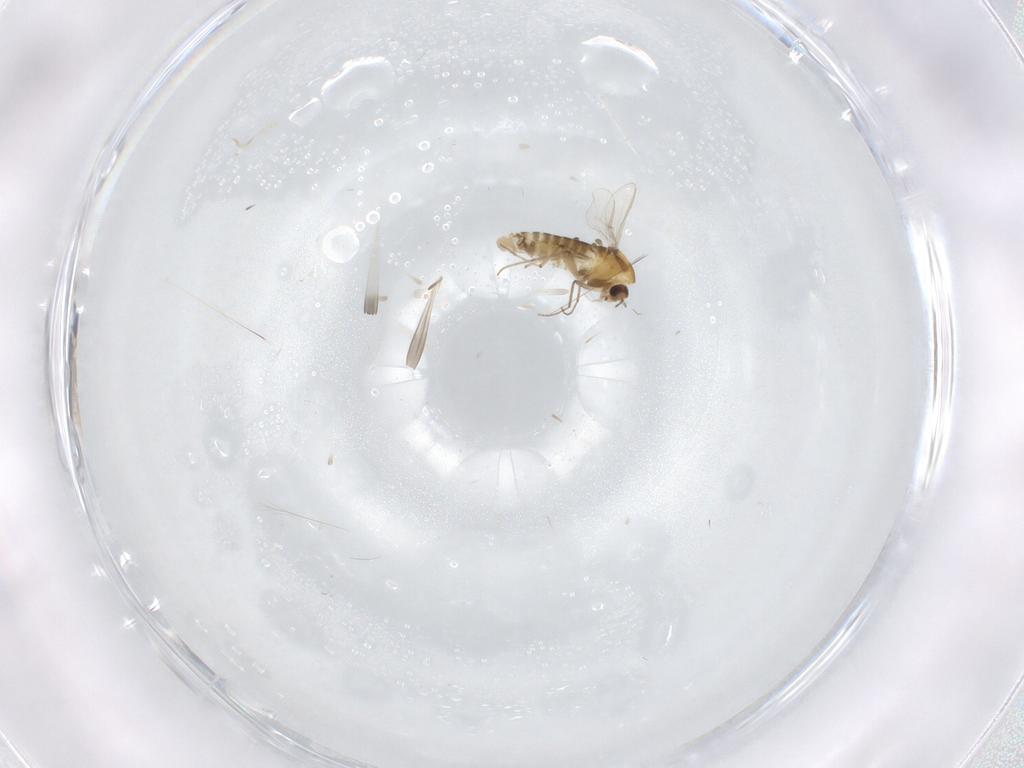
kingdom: Animalia
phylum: Arthropoda
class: Insecta
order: Diptera
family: Chironomidae
